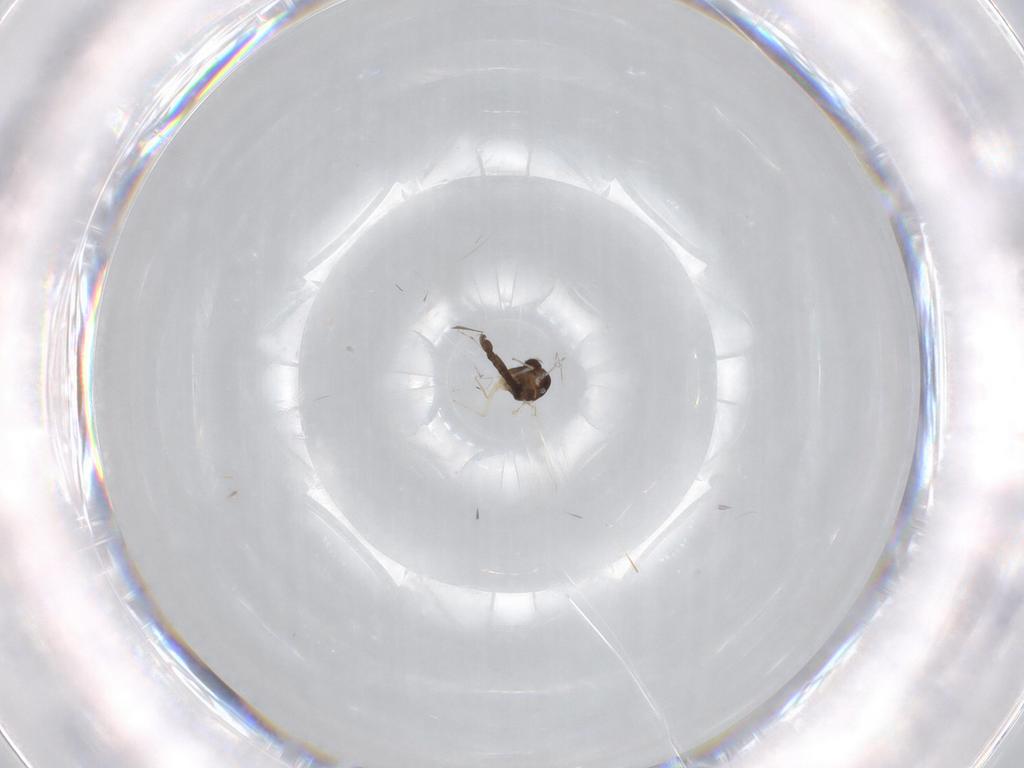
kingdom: Animalia
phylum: Arthropoda
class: Insecta
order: Diptera
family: Chironomidae
